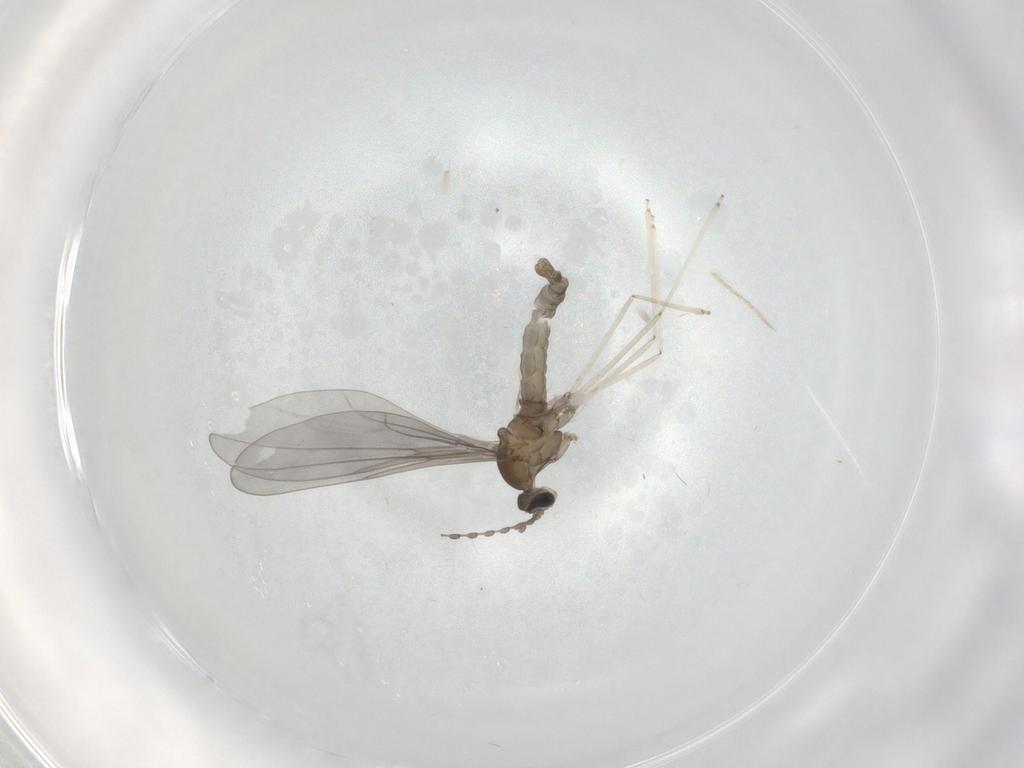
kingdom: Animalia
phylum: Arthropoda
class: Insecta
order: Diptera
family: Cecidomyiidae
